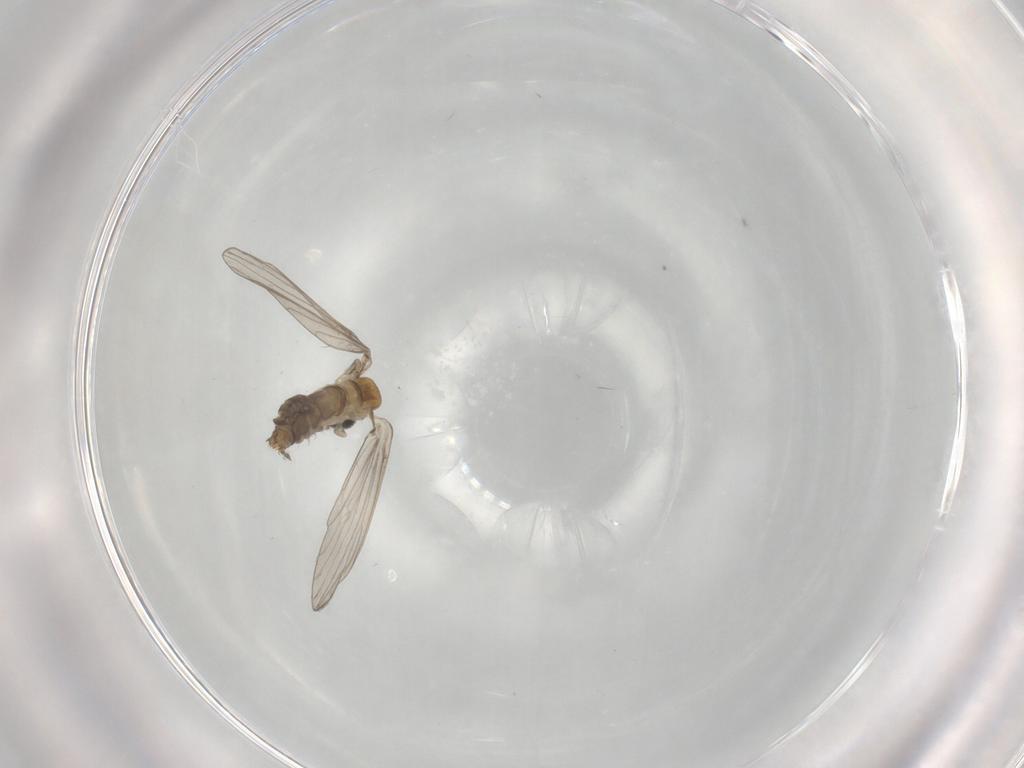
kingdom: Animalia
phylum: Arthropoda
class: Insecta
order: Diptera
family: Psychodidae
